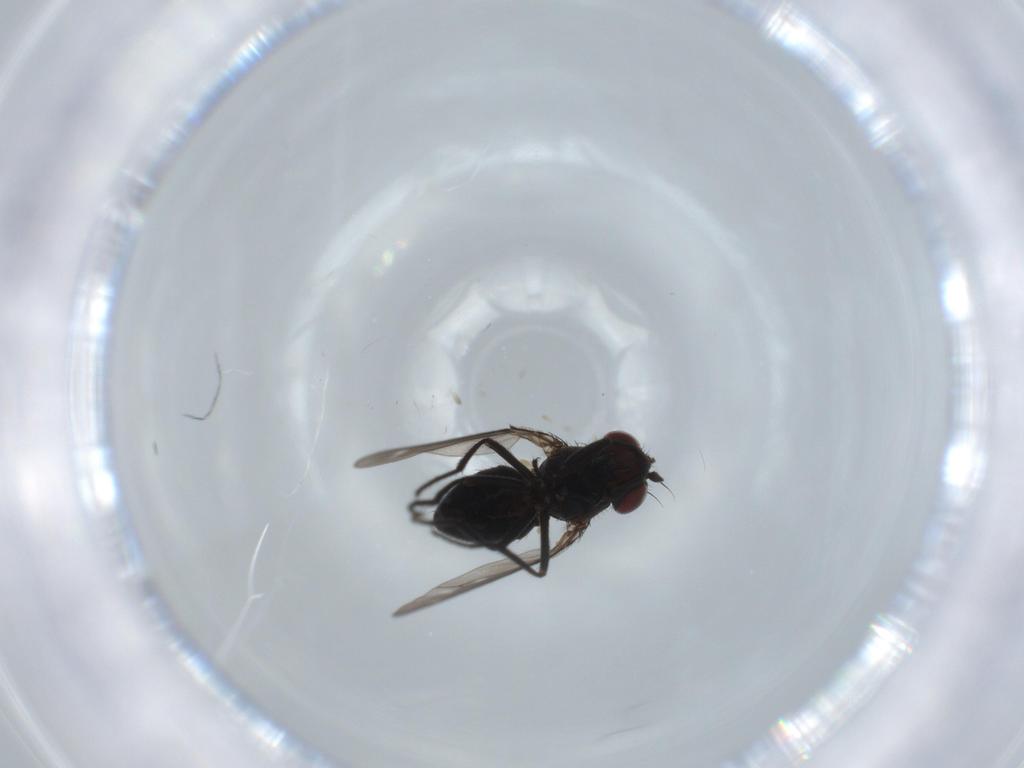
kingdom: Animalia
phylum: Arthropoda
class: Insecta
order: Diptera
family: Ephydridae
